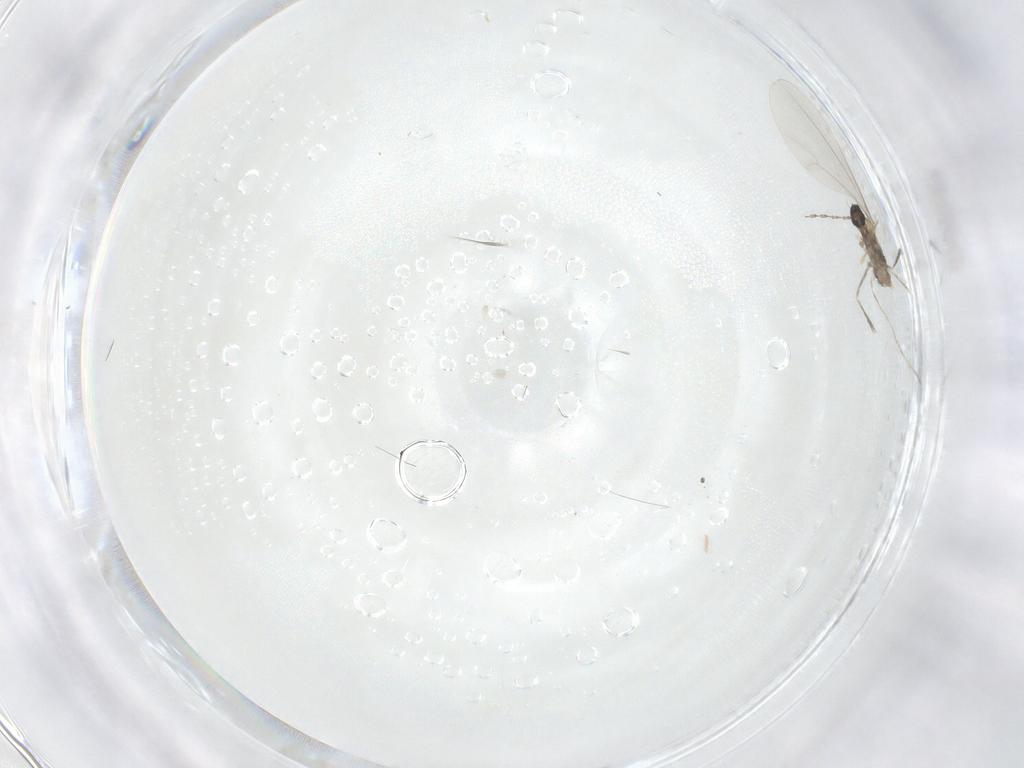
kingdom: Animalia
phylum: Arthropoda
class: Insecta
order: Diptera
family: Cecidomyiidae
